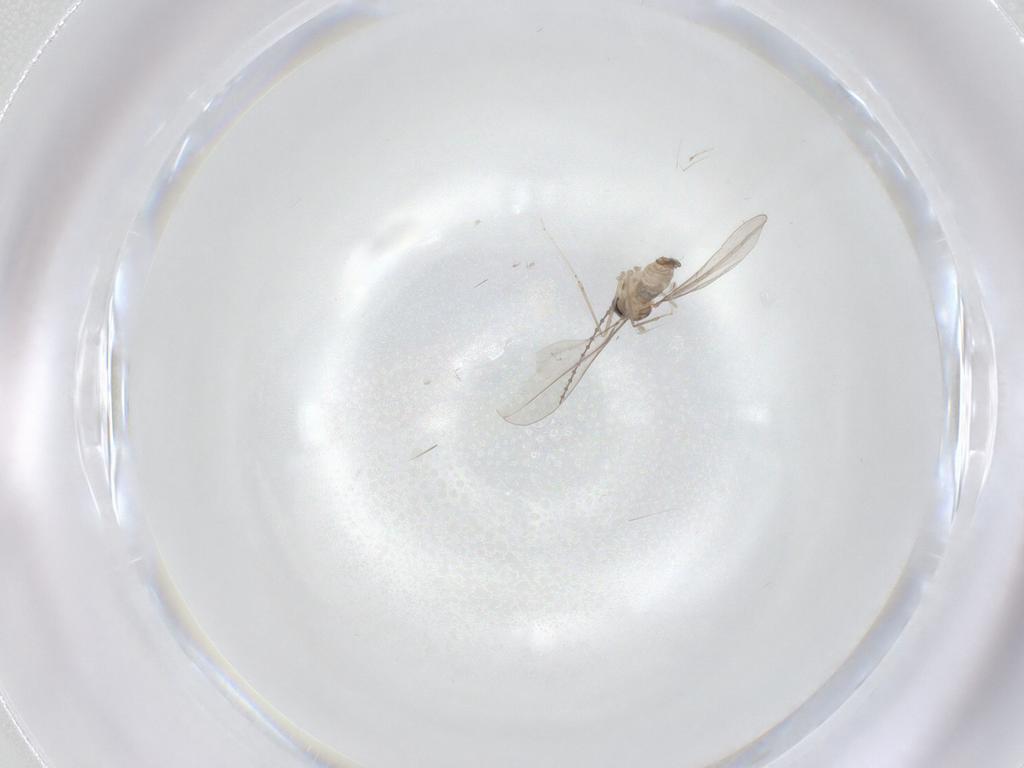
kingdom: Animalia
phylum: Arthropoda
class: Insecta
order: Diptera
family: Cecidomyiidae
